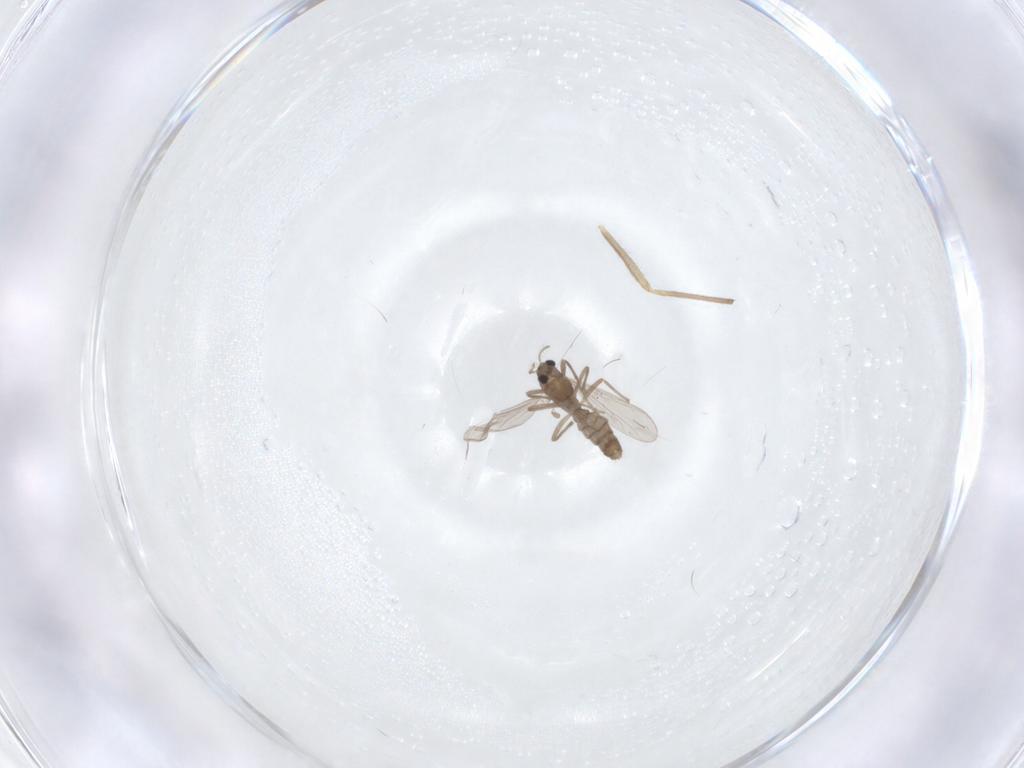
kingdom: Animalia
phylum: Arthropoda
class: Insecta
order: Diptera
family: Chironomidae
